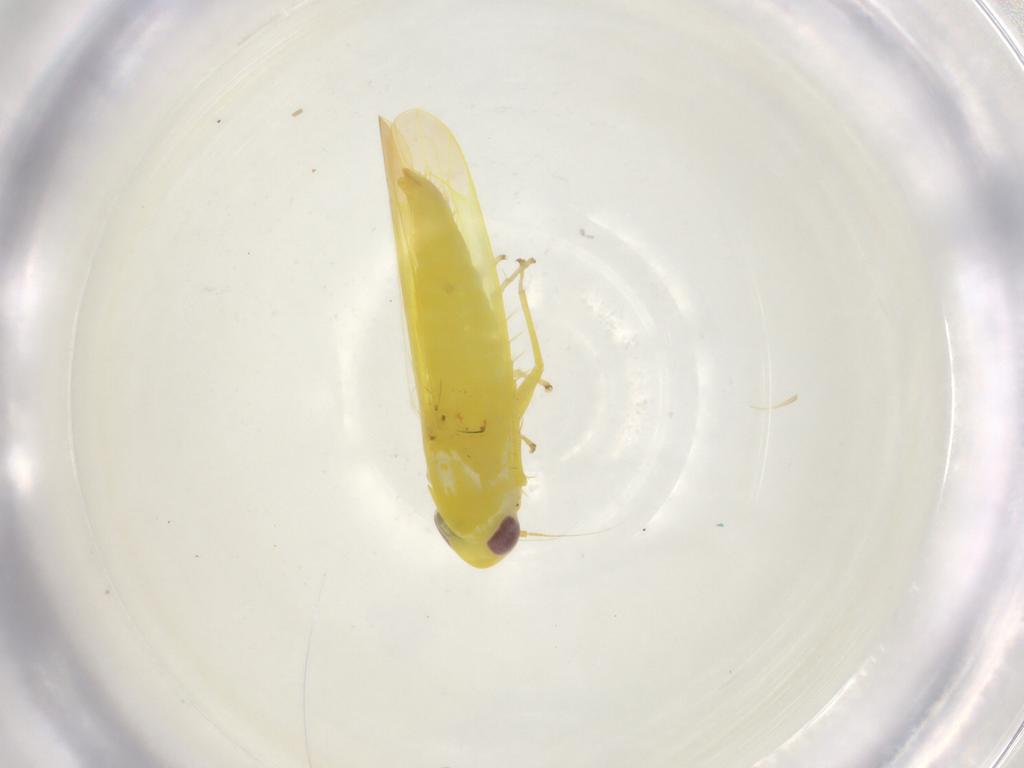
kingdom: Animalia
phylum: Arthropoda
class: Insecta
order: Hemiptera
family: Cicadellidae
